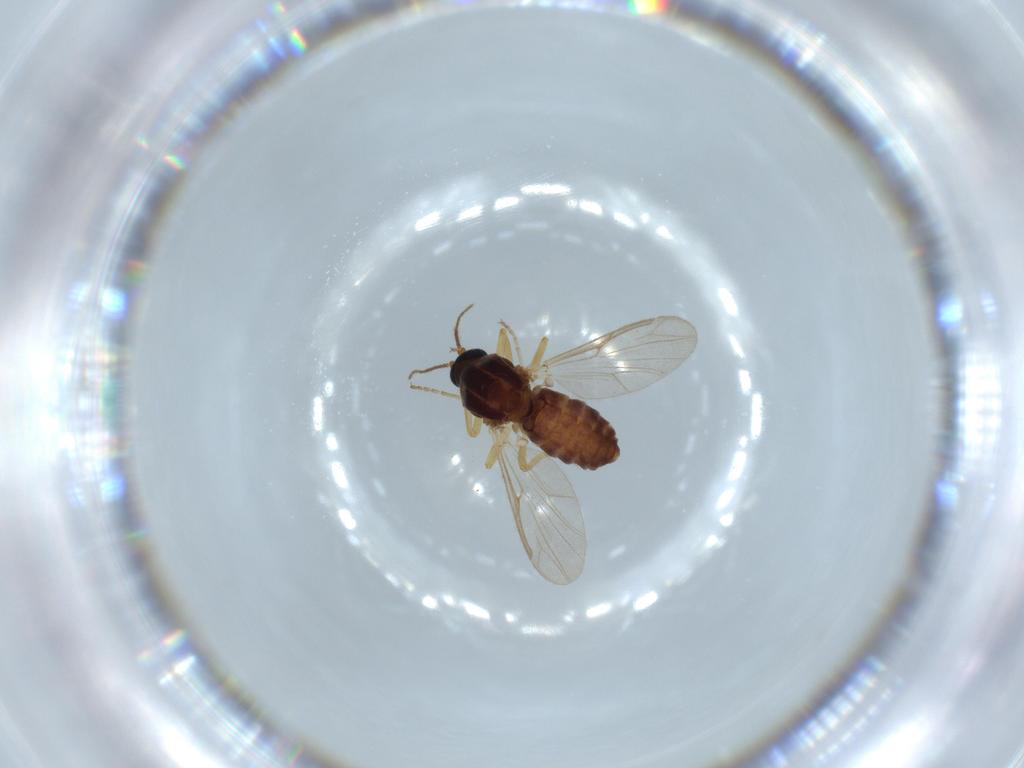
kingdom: Animalia
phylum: Arthropoda
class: Insecta
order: Diptera
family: Ceratopogonidae
